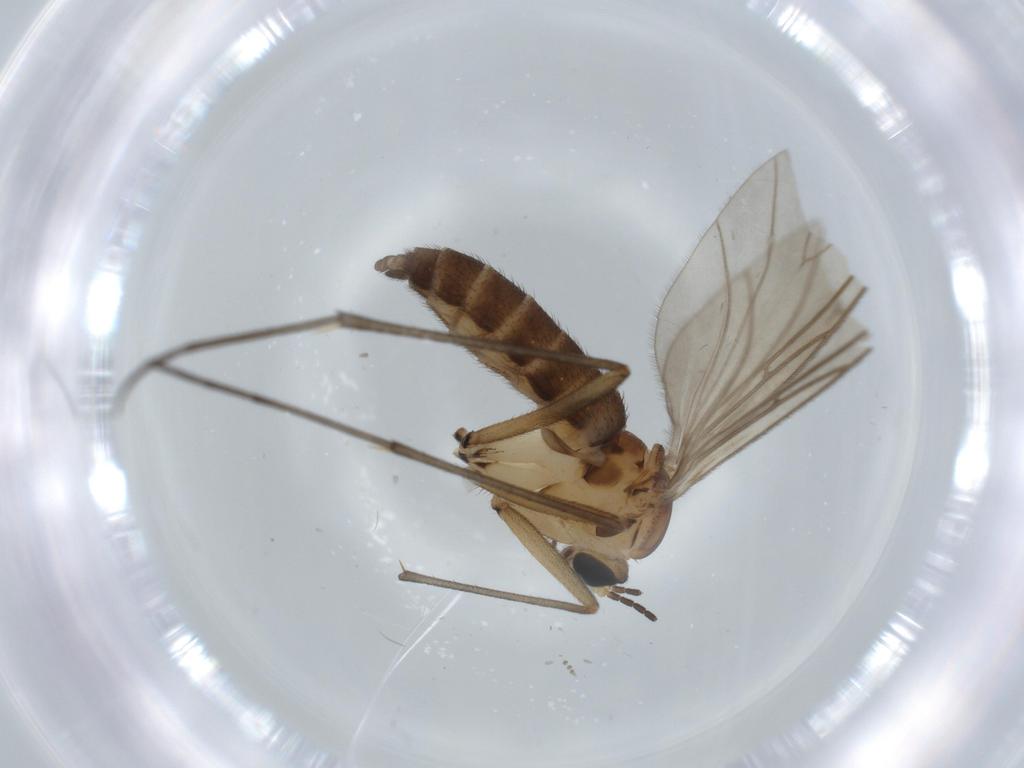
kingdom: Animalia
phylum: Arthropoda
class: Insecta
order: Diptera
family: Sciaridae
